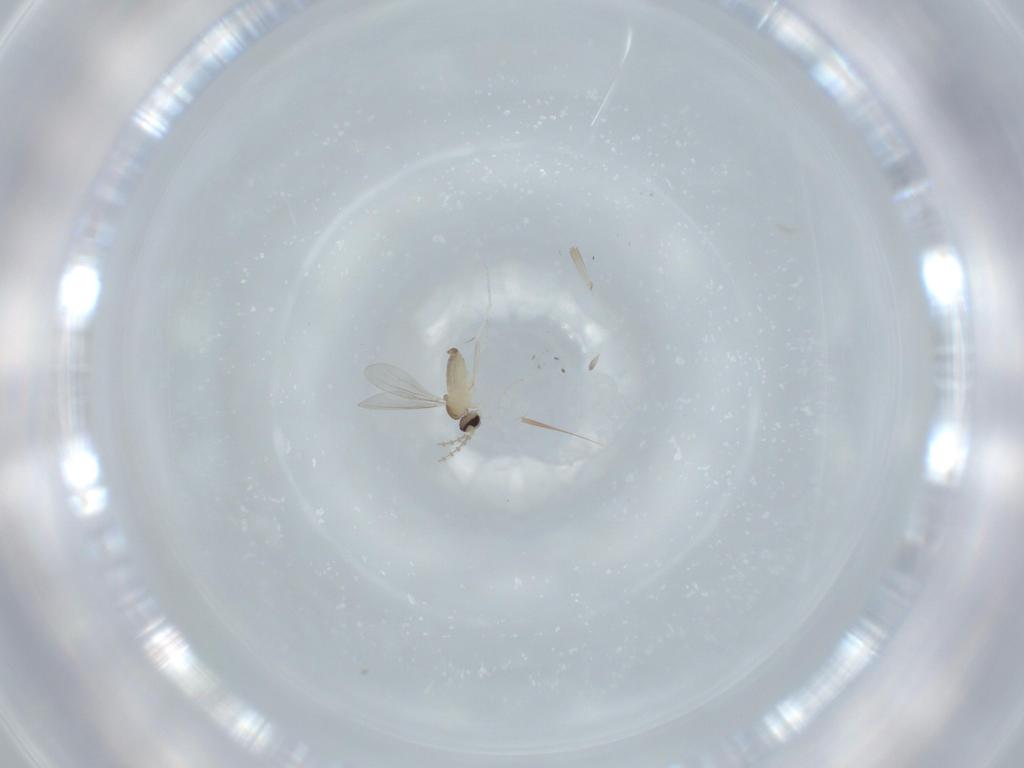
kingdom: Animalia
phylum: Arthropoda
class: Insecta
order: Diptera
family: Cecidomyiidae
